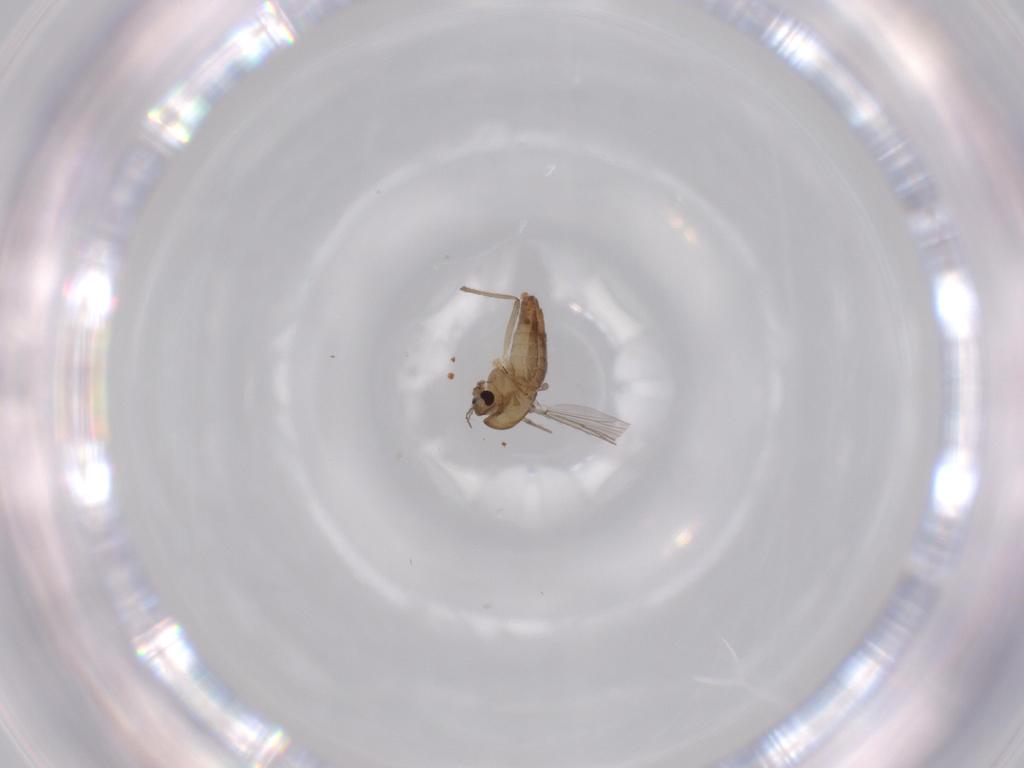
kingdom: Animalia
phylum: Arthropoda
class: Insecta
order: Diptera
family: Chironomidae
